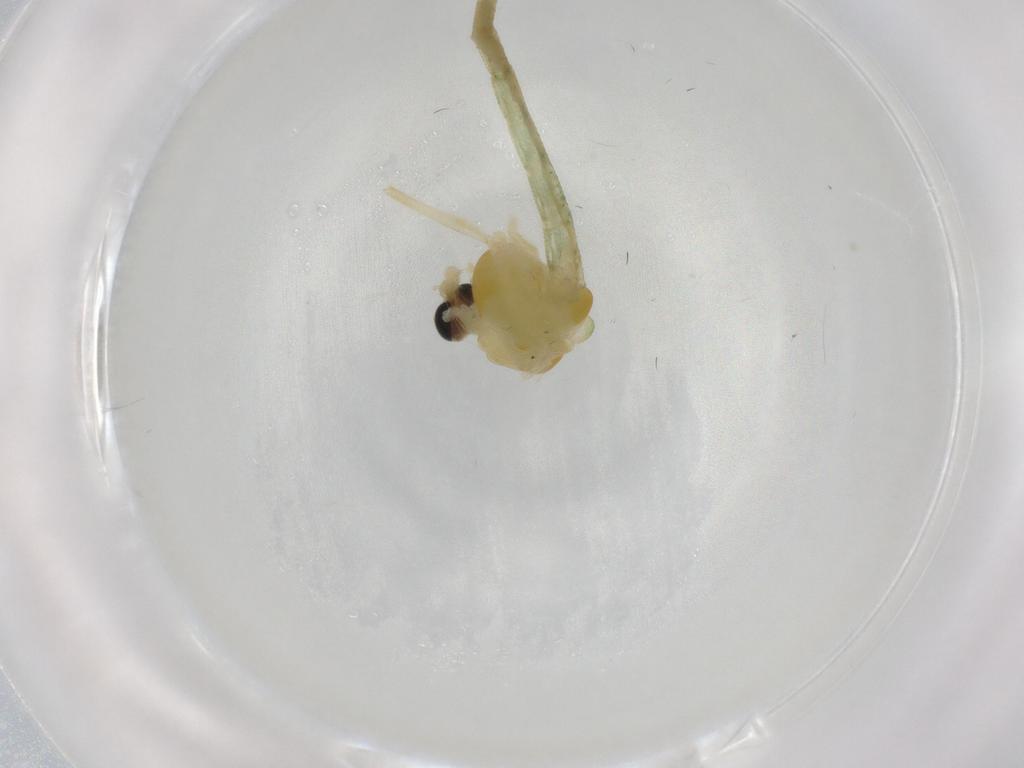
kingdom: Animalia
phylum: Arthropoda
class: Insecta
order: Diptera
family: Chironomidae
